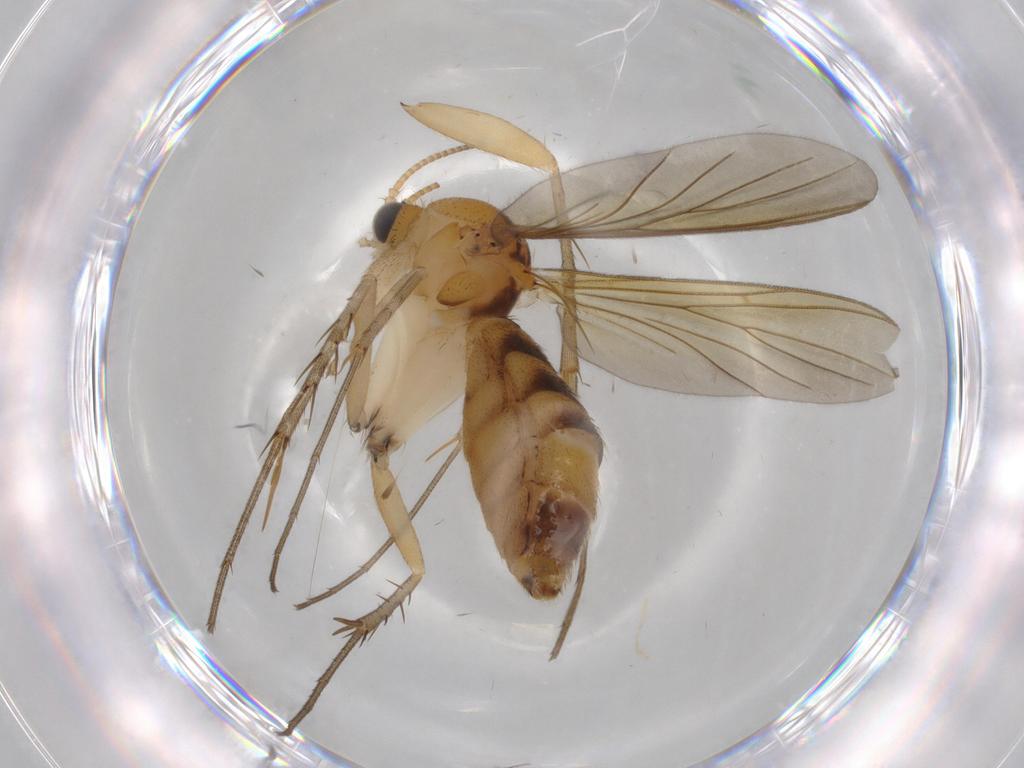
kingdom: Animalia
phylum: Arthropoda
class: Insecta
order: Diptera
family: Mycetophilidae
